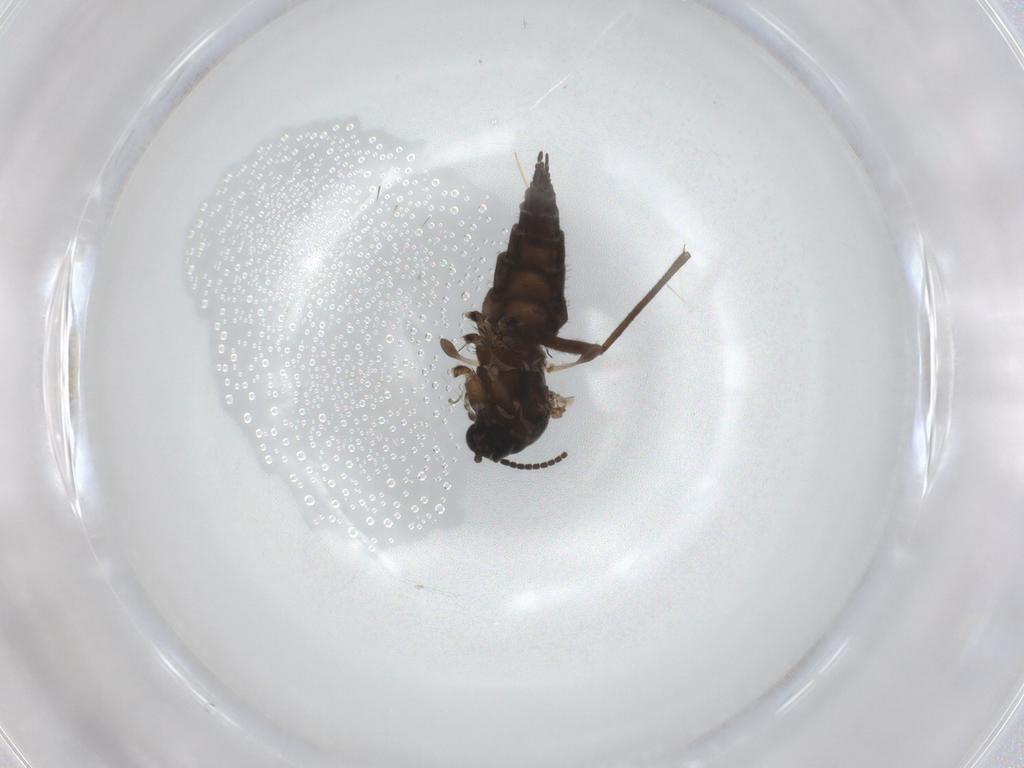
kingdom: Animalia
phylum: Arthropoda
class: Insecta
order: Diptera
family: Sciaridae
